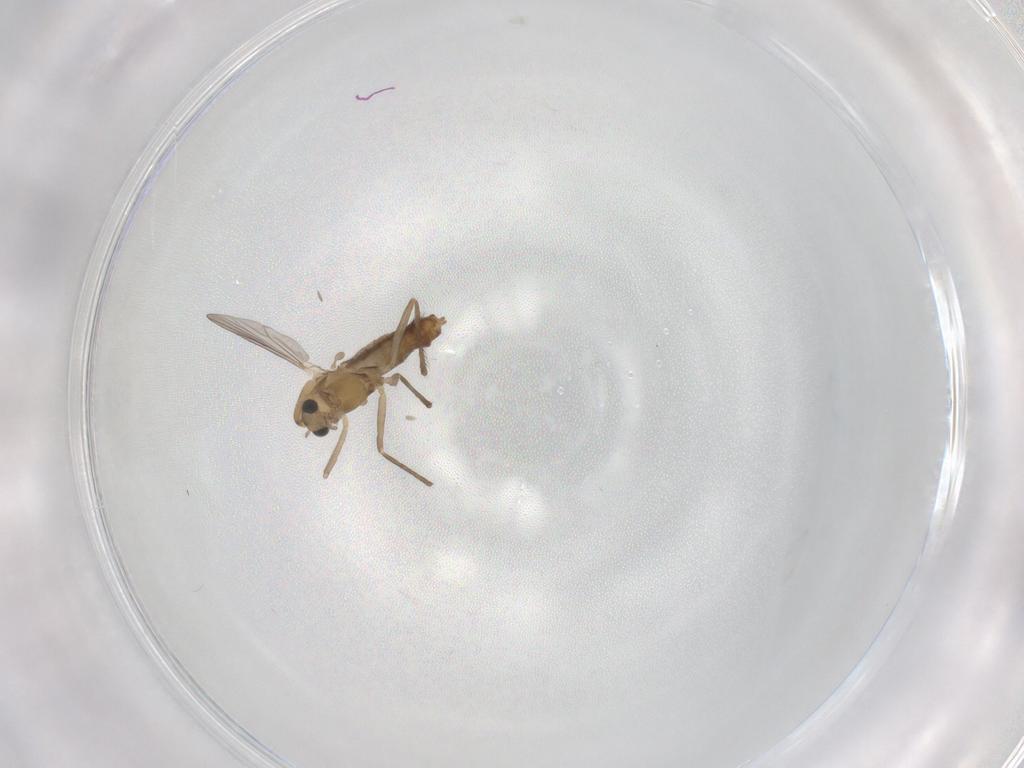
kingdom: Animalia
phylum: Arthropoda
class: Insecta
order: Diptera
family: Chironomidae
